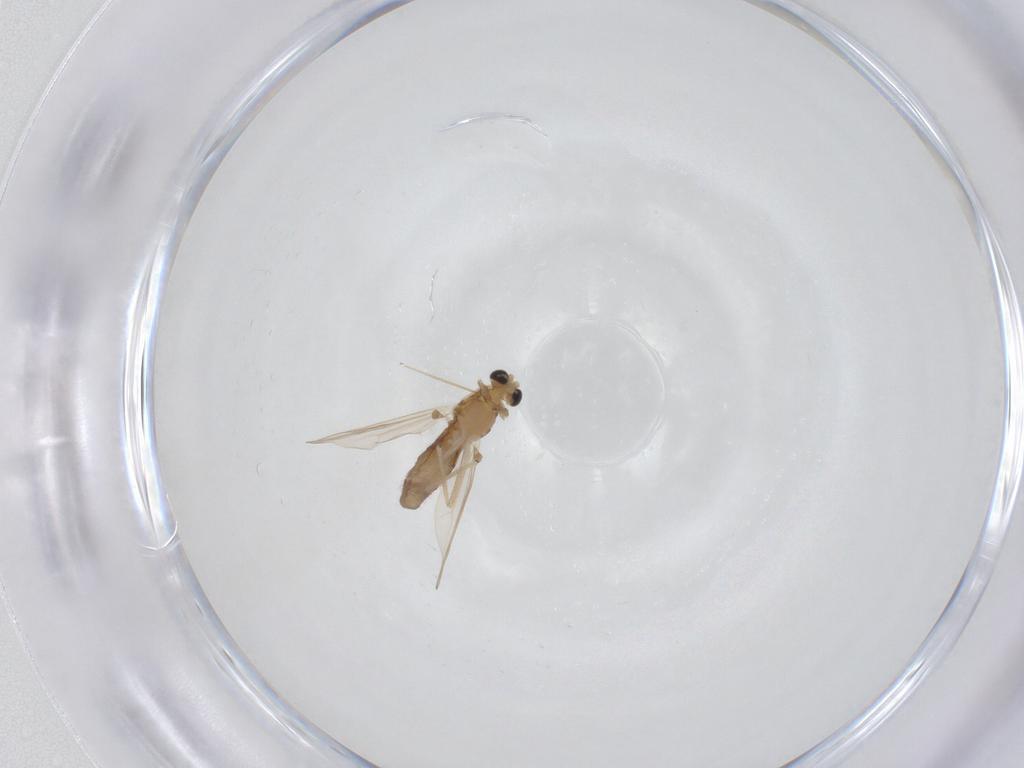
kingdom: Animalia
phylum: Arthropoda
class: Insecta
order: Diptera
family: Chironomidae
